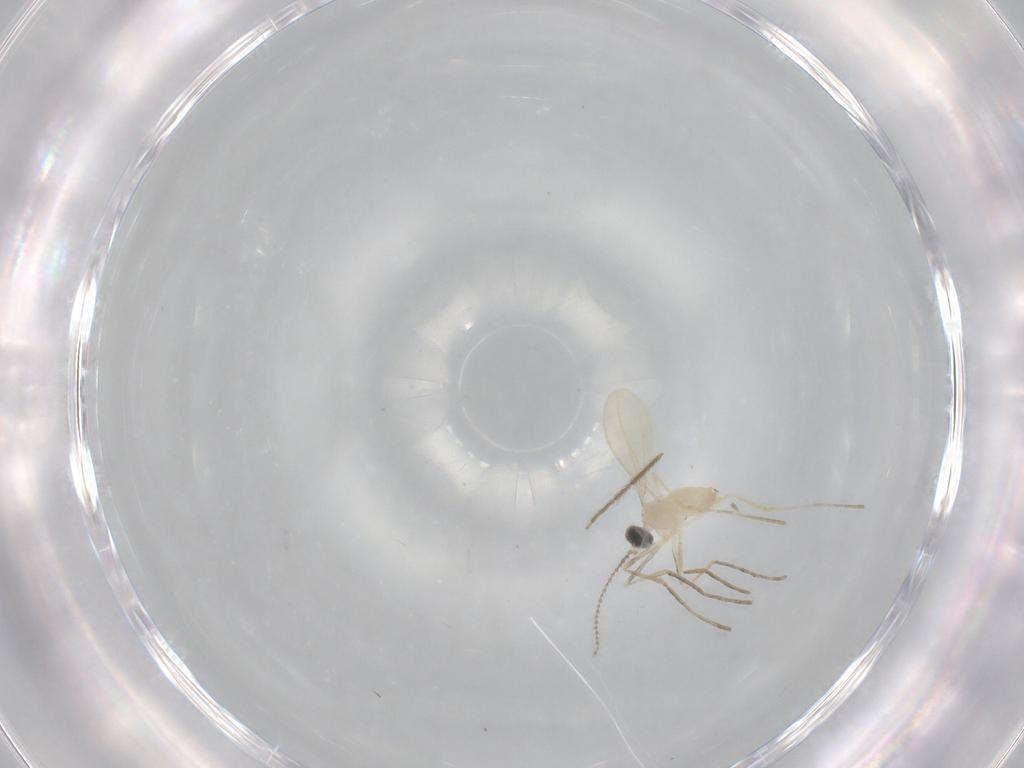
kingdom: Animalia
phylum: Arthropoda
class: Insecta
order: Diptera
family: Cecidomyiidae
